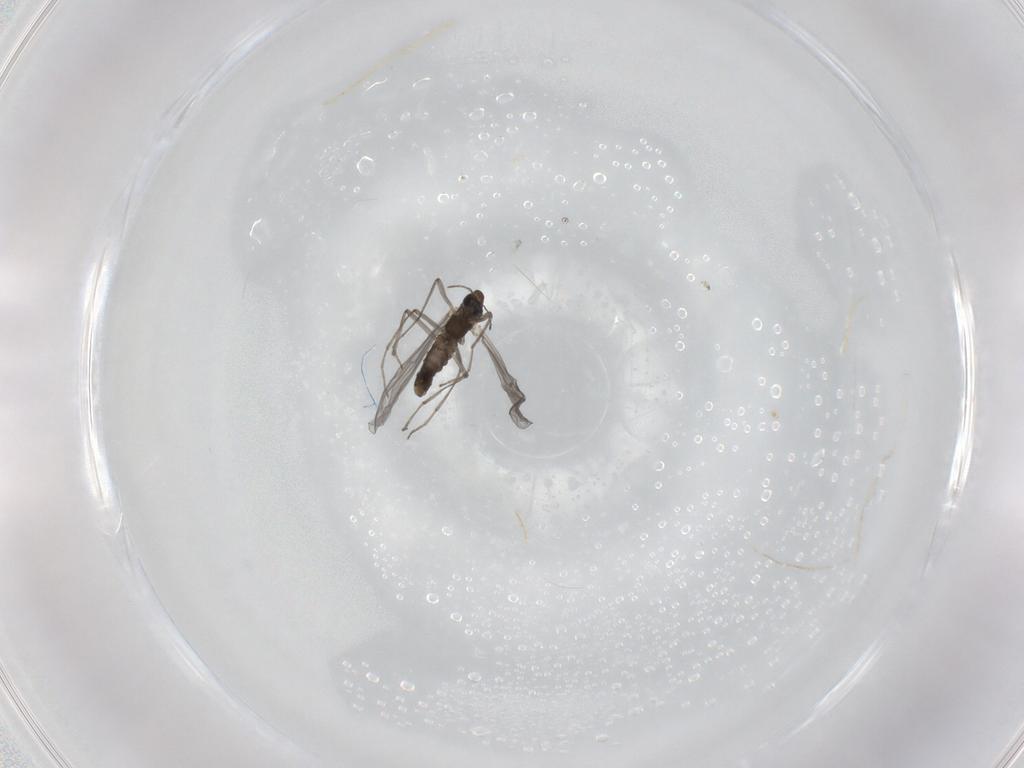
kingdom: Animalia
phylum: Arthropoda
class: Insecta
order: Diptera
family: Chironomidae
